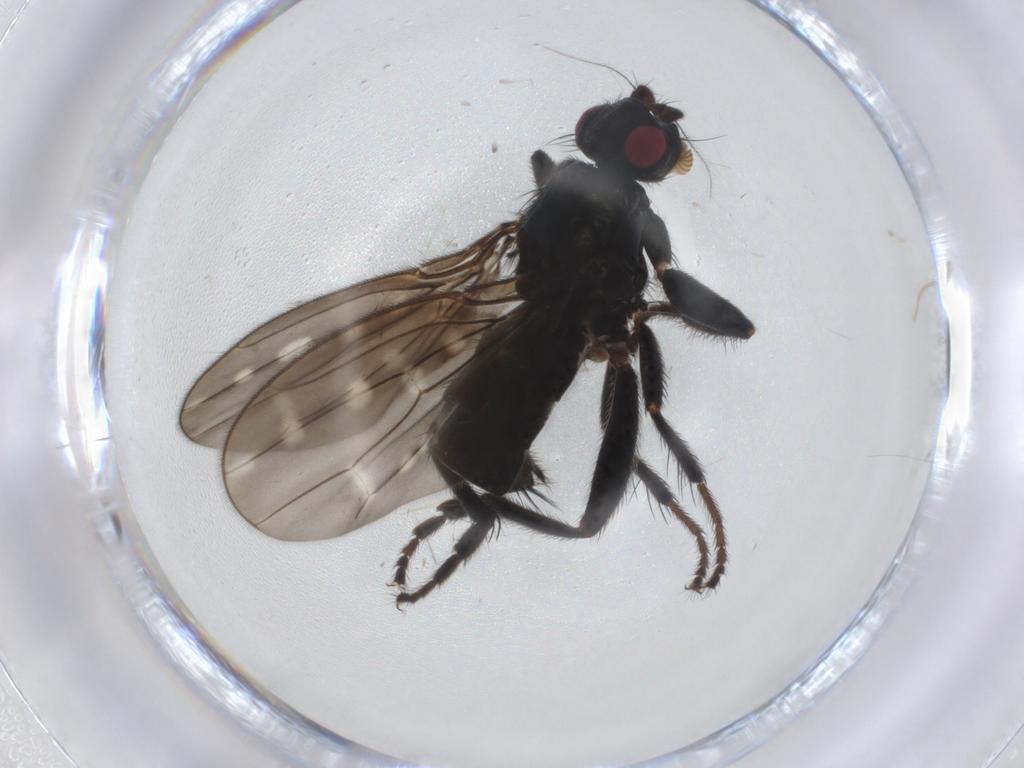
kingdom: Animalia
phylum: Arthropoda
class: Insecta
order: Diptera
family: Sphaeroceridae
